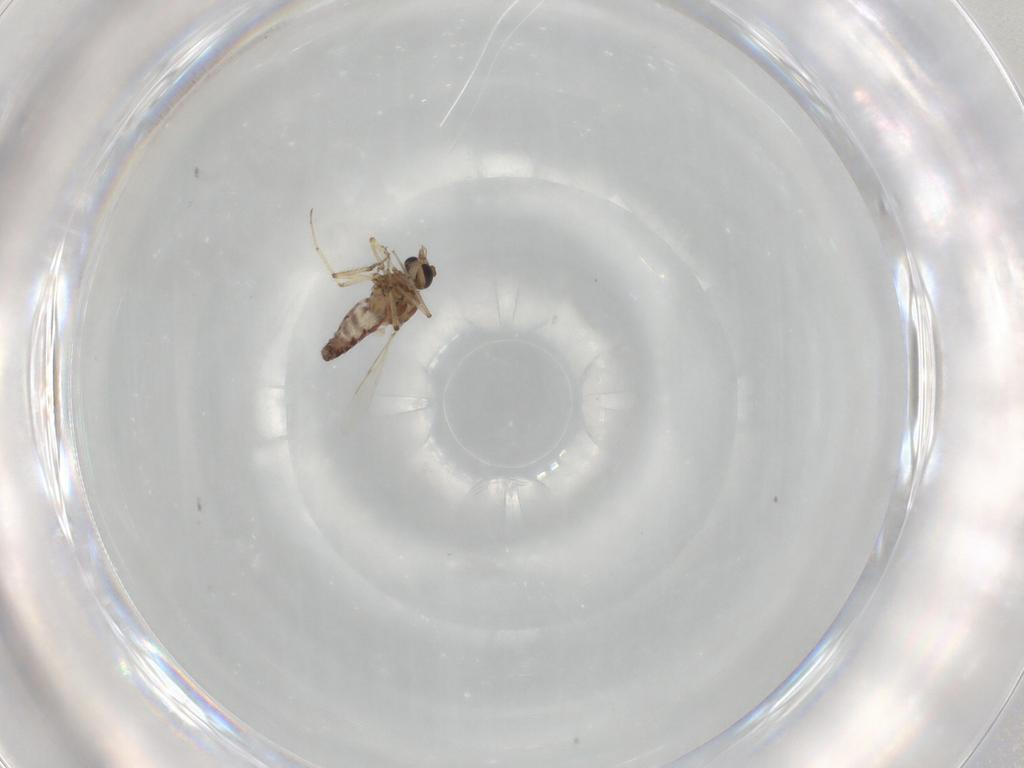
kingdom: Animalia
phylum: Arthropoda
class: Insecta
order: Diptera
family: Ceratopogonidae
